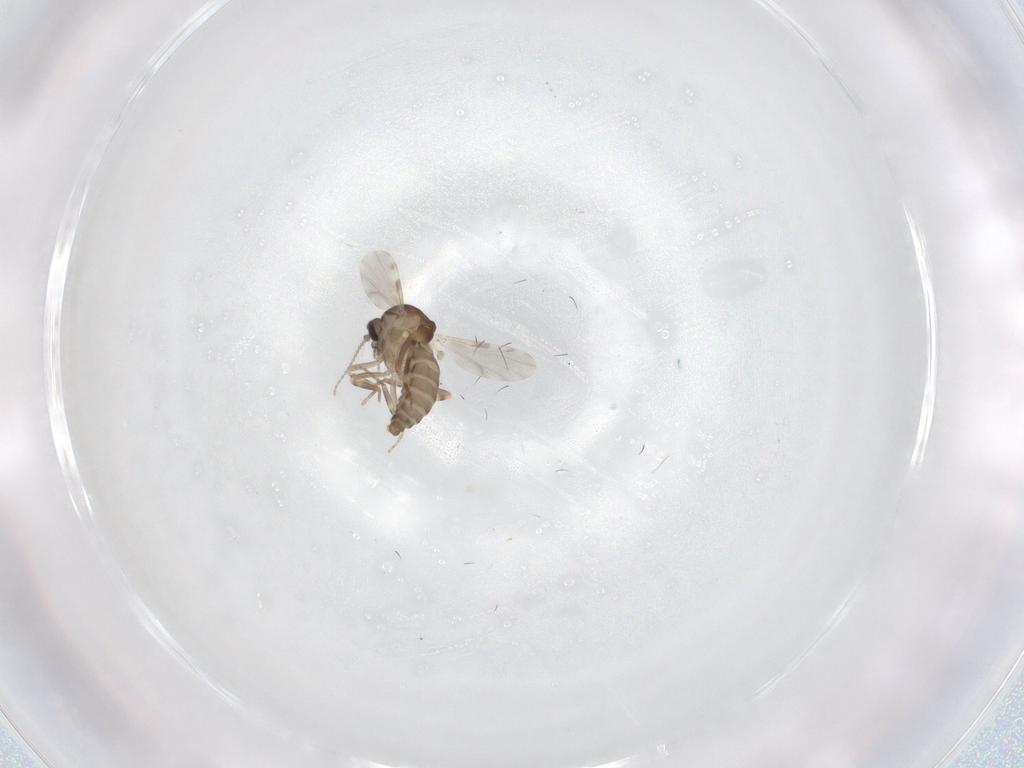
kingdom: Animalia
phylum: Arthropoda
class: Insecta
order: Diptera
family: Ceratopogonidae
